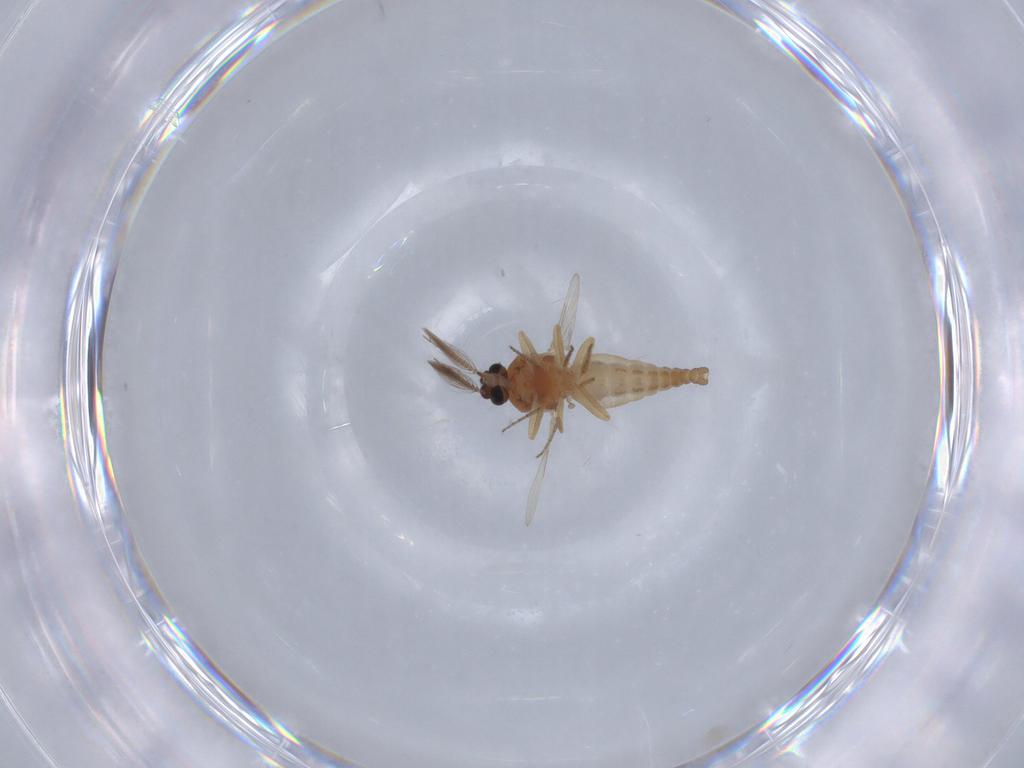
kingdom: Animalia
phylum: Arthropoda
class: Insecta
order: Diptera
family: Ceratopogonidae
